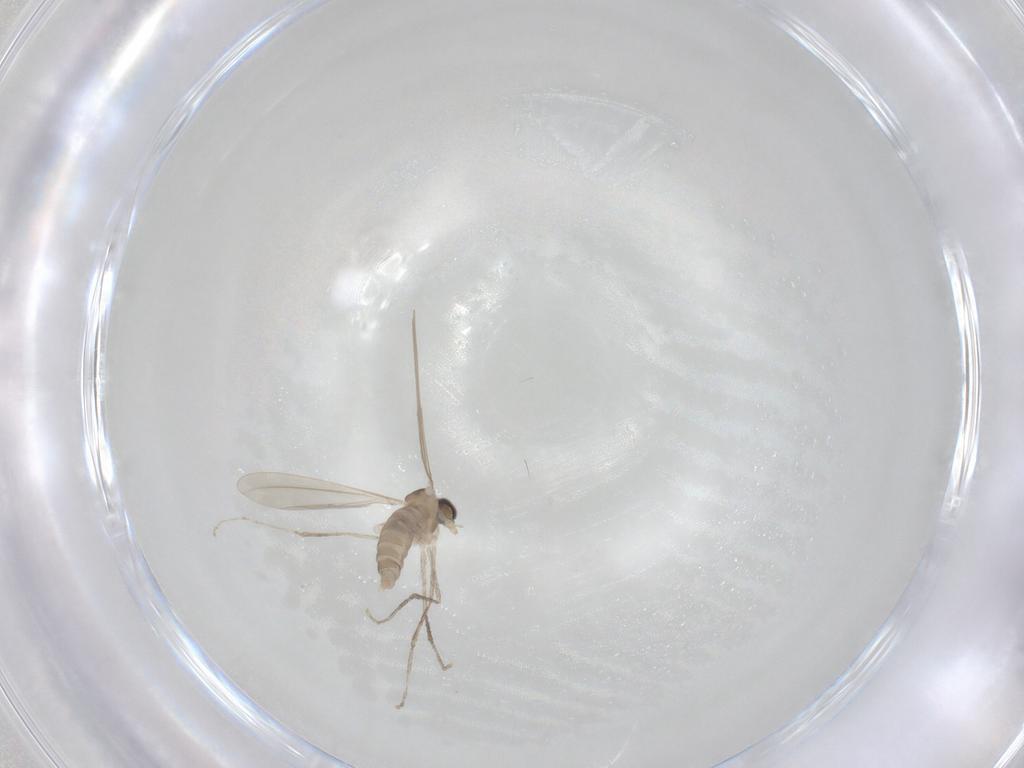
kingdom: Animalia
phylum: Arthropoda
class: Insecta
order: Diptera
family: Cecidomyiidae
